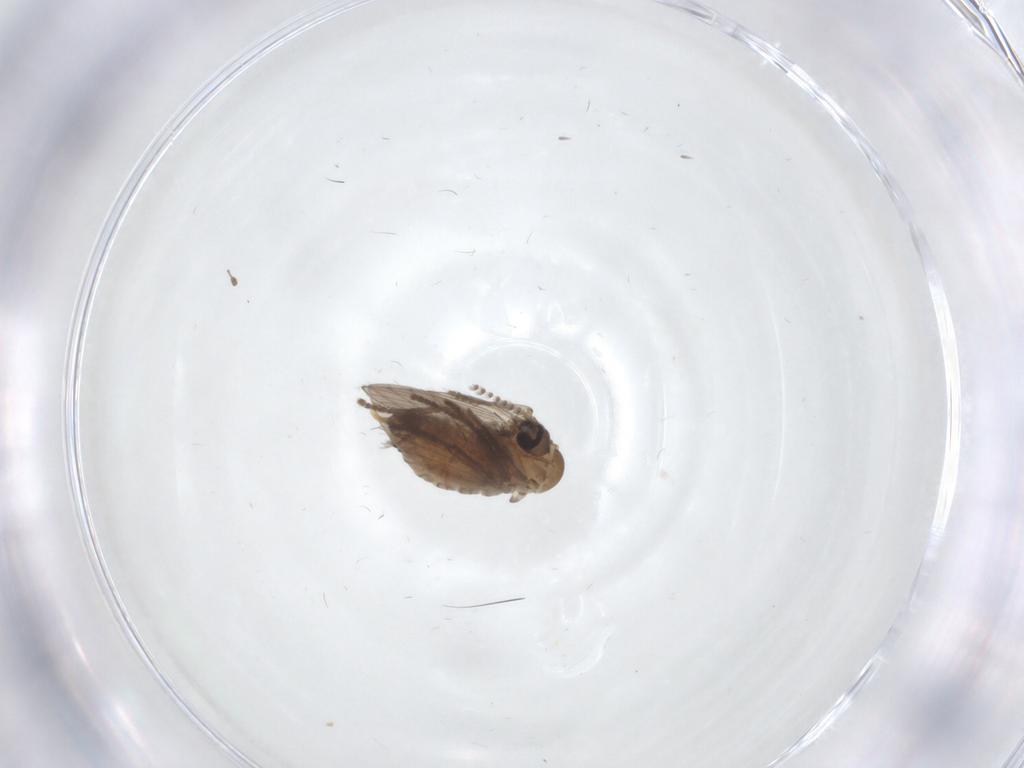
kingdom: Animalia
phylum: Arthropoda
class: Insecta
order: Diptera
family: Psychodidae
